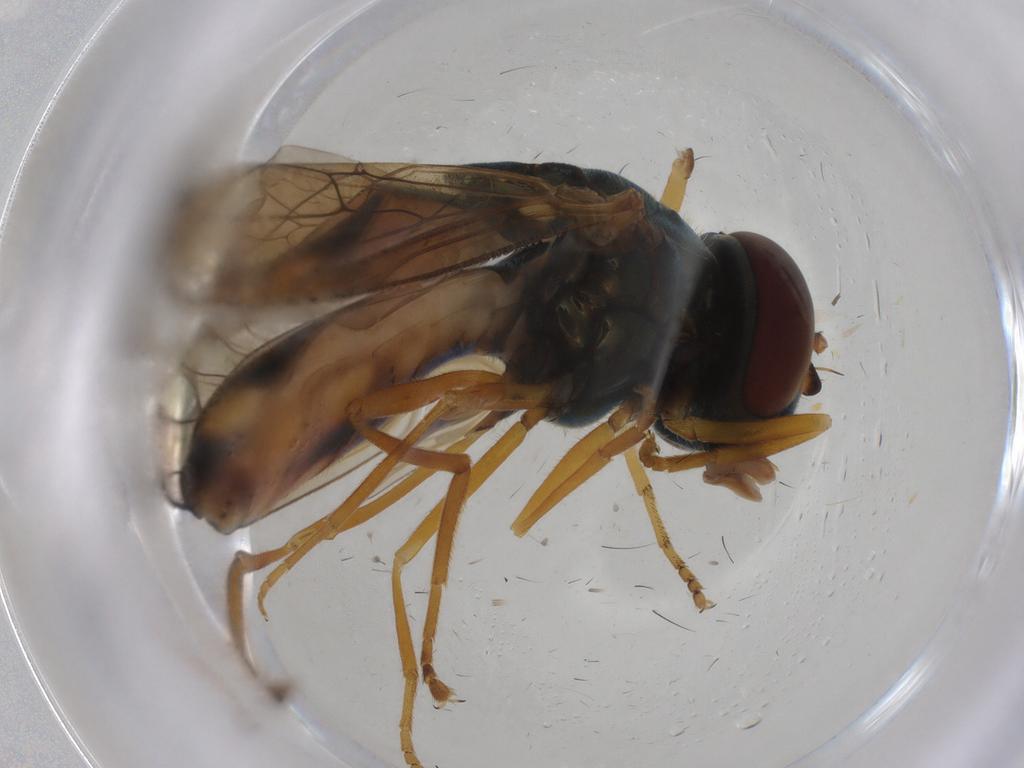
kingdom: Animalia
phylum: Arthropoda
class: Insecta
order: Diptera
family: Syrphidae
